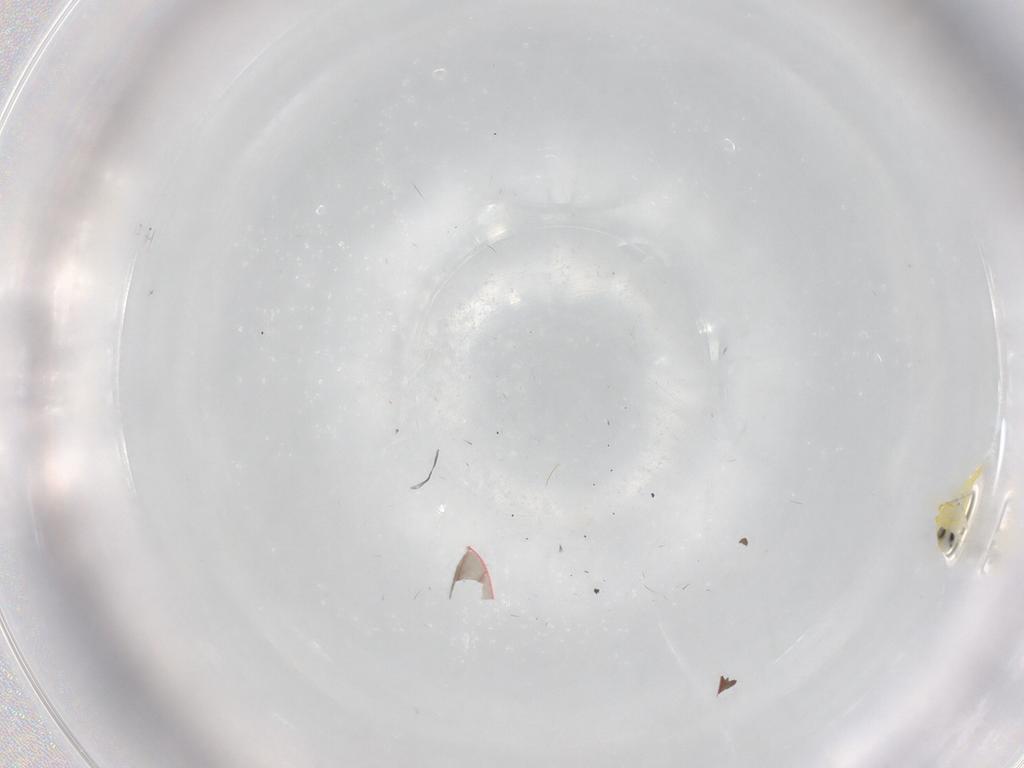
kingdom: Animalia
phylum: Arthropoda
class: Insecta
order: Hemiptera
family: Derbidae
